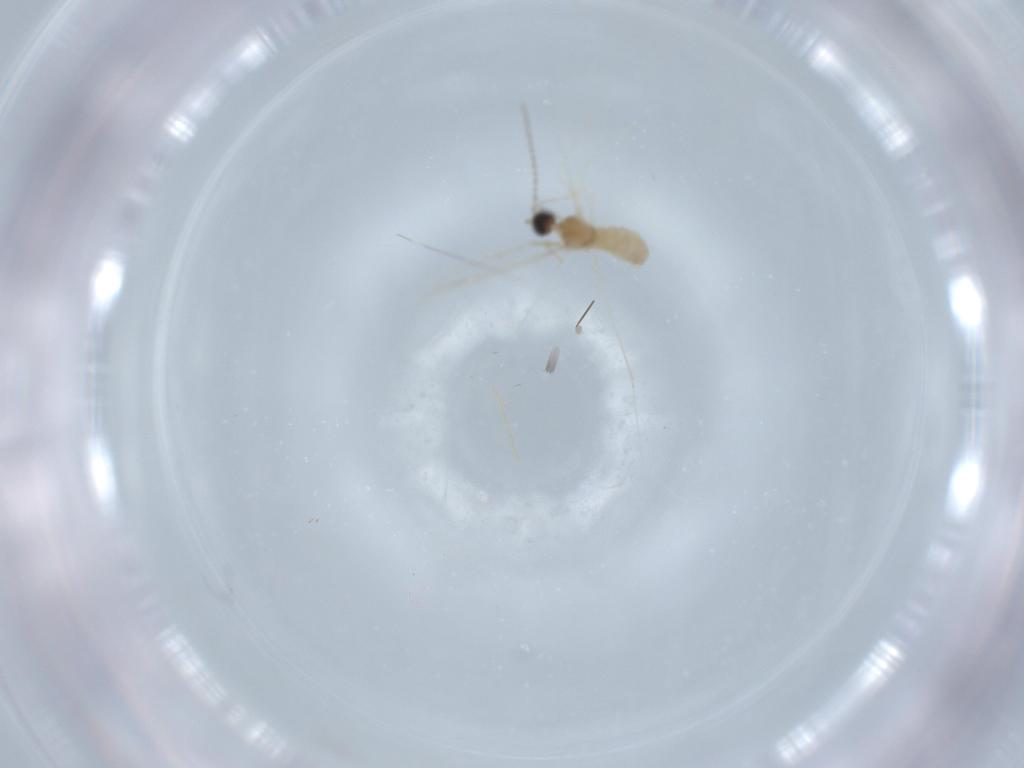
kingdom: Animalia
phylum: Arthropoda
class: Insecta
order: Diptera
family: Cecidomyiidae
